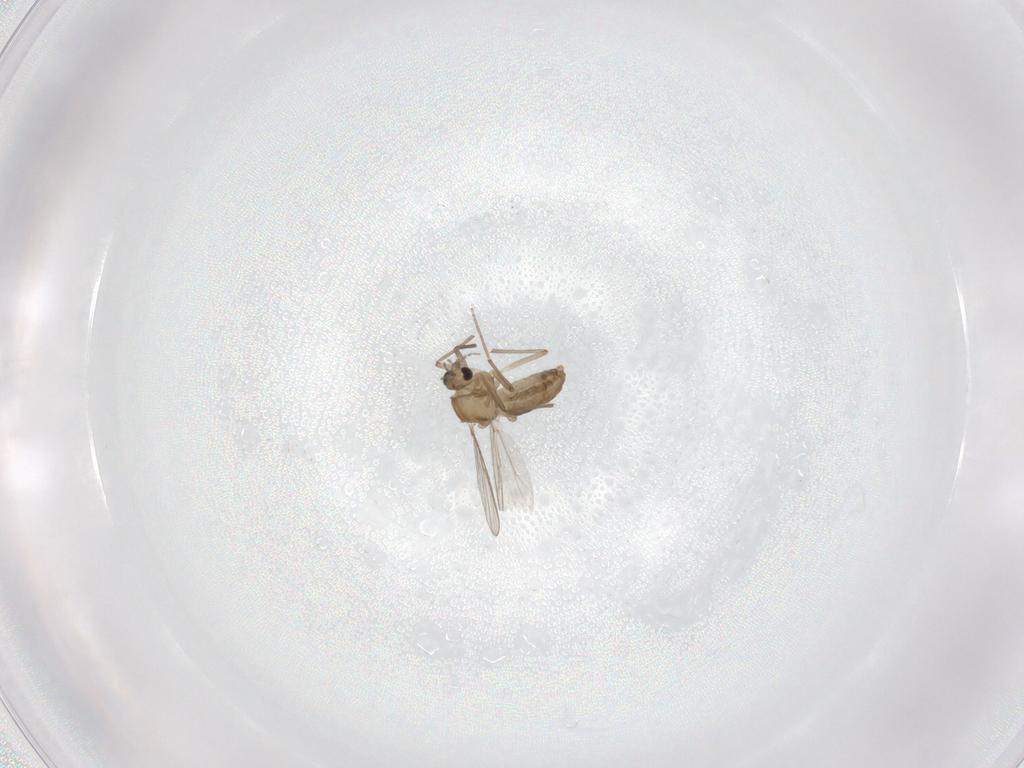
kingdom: Animalia
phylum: Arthropoda
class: Insecta
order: Diptera
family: Chironomidae
